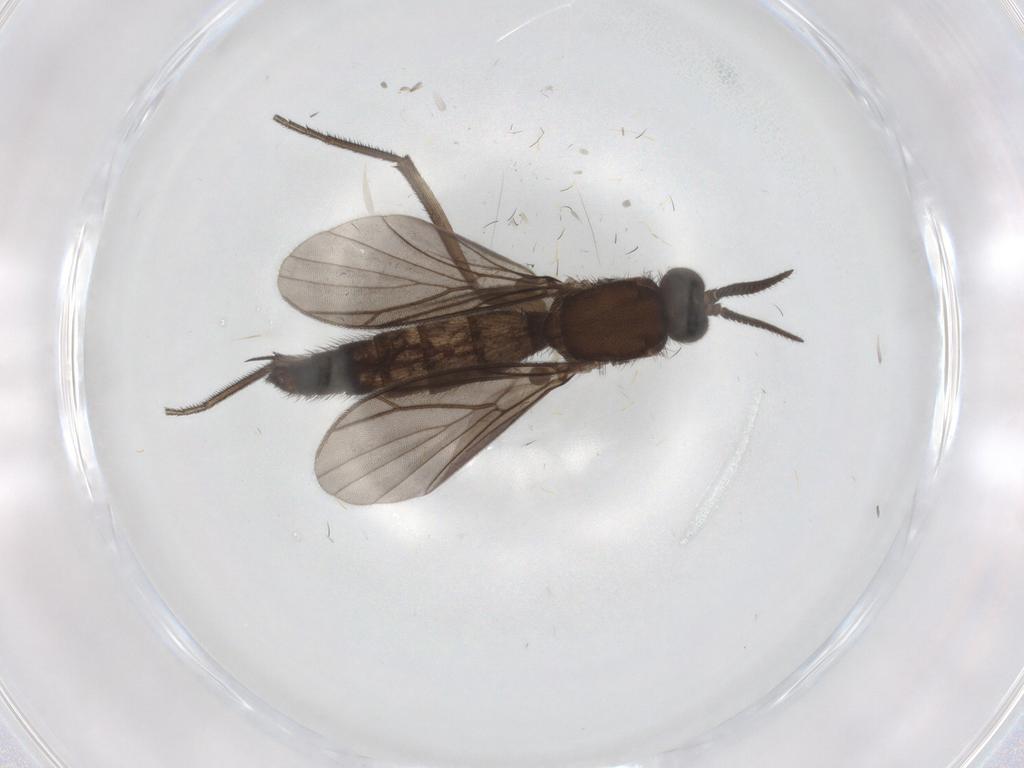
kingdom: Animalia
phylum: Arthropoda
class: Insecta
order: Diptera
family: Keroplatidae
